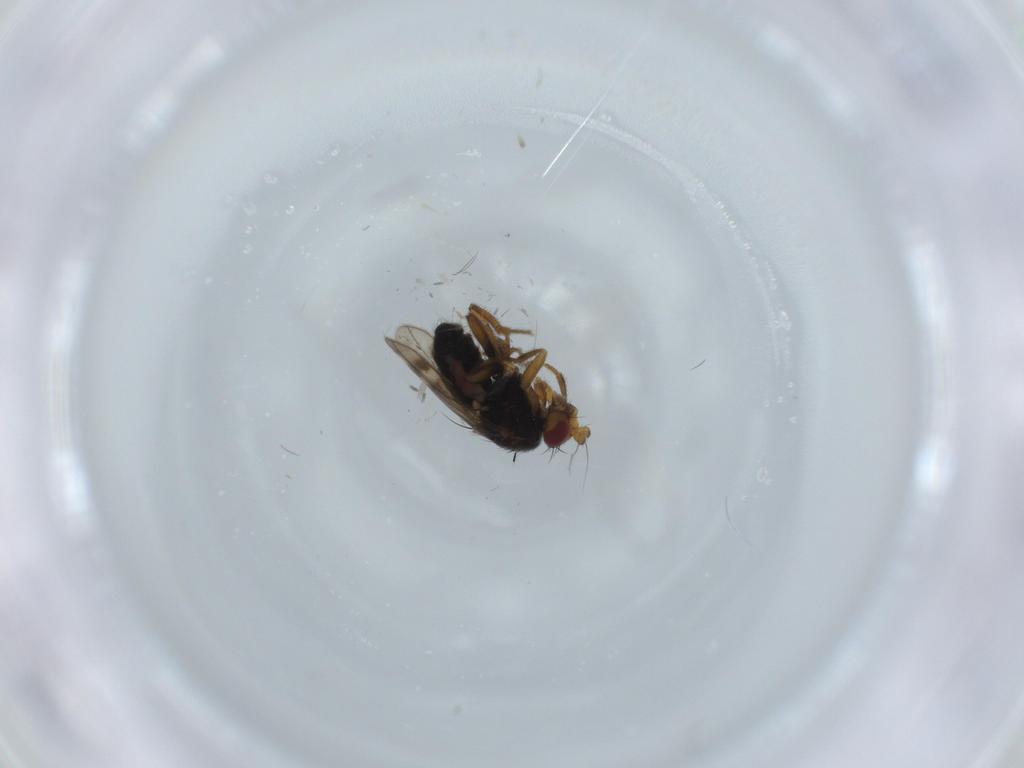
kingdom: Animalia
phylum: Arthropoda
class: Insecta
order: Diptera
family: Sphaeroceridae
